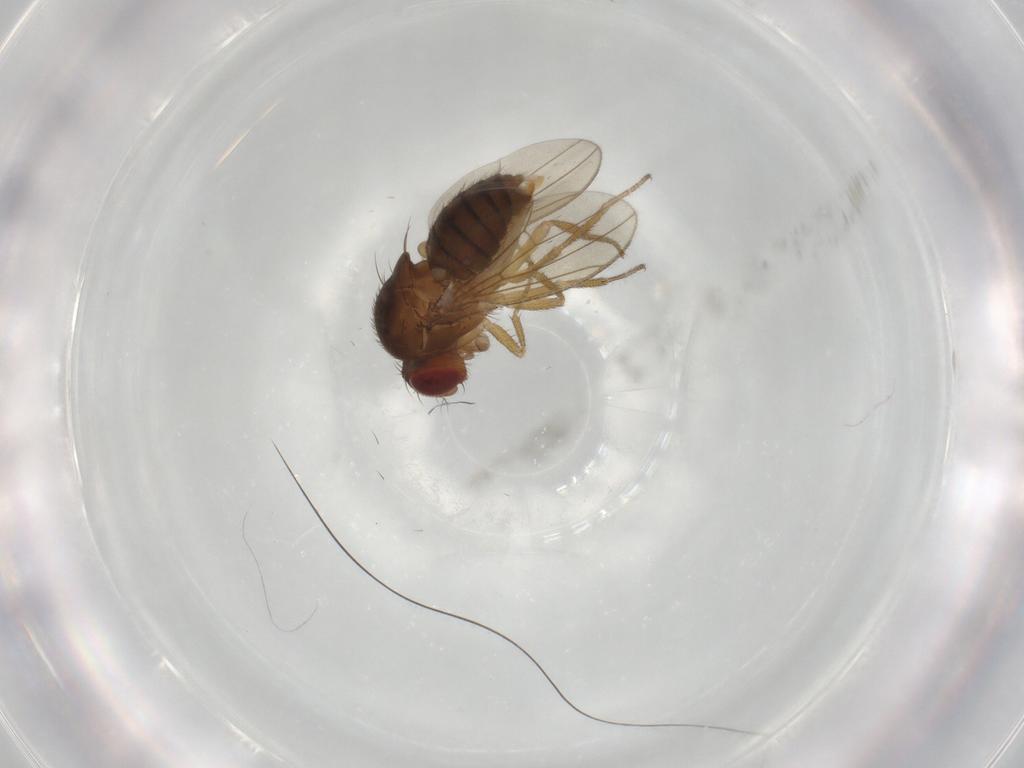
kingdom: Animalia
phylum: Arthropoda
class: Insecta
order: Diptera
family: Drosophilidae
